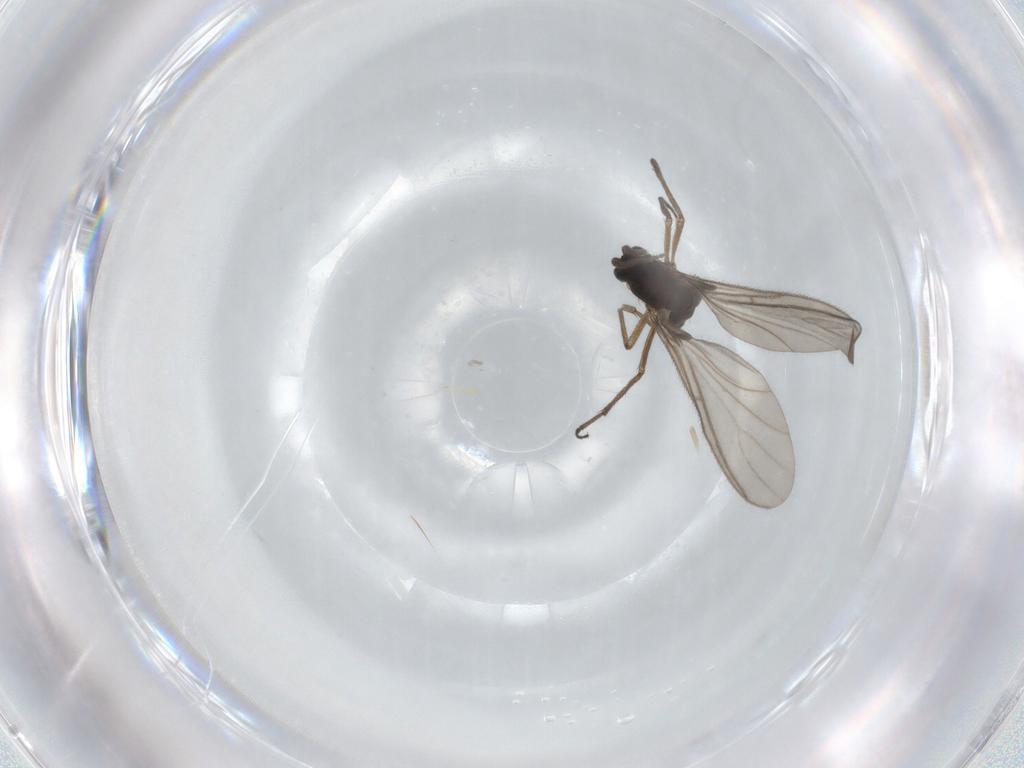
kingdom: Animalia
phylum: Arthropoda
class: Insecta
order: Diptera
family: Sciaridae
